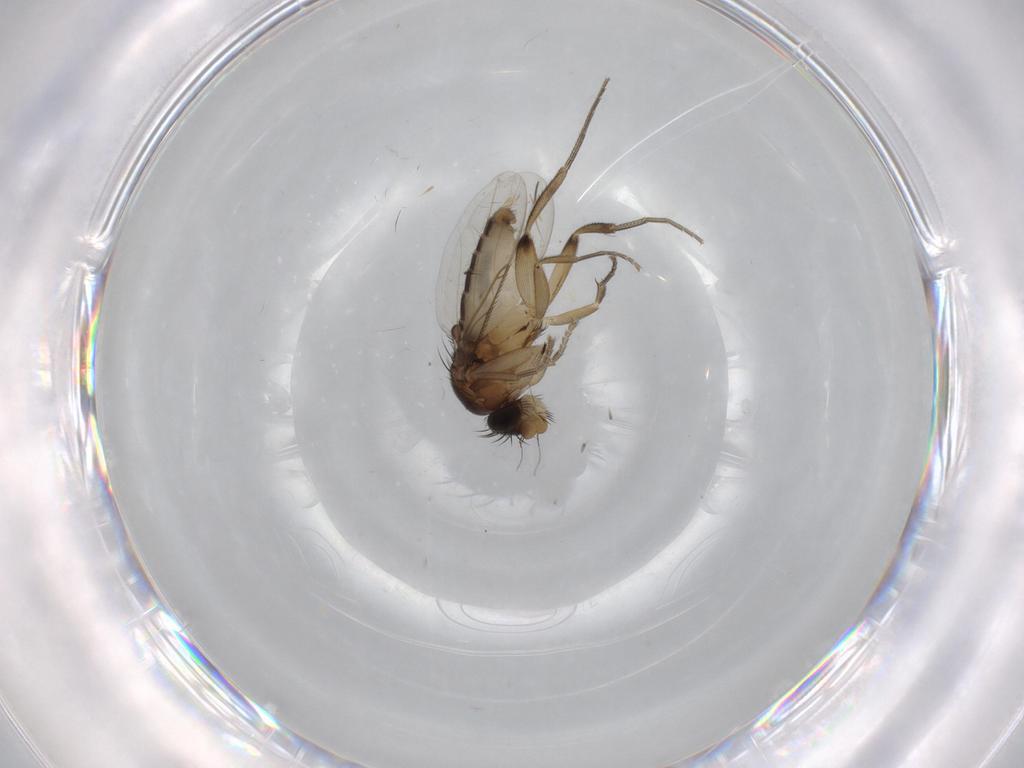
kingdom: Animalia
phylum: Arthropoda
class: Insecta
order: Diptera
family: Phoridae
